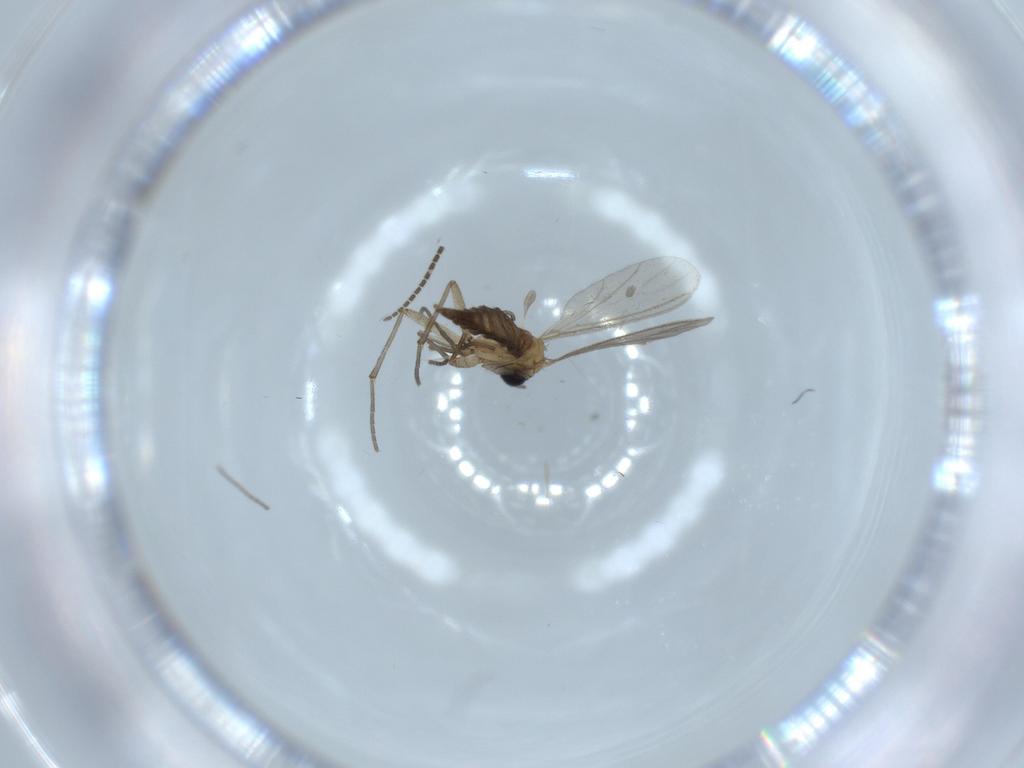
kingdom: Animalia
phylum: Arthropoda
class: Insecta
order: Diptera
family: Sciaridae
